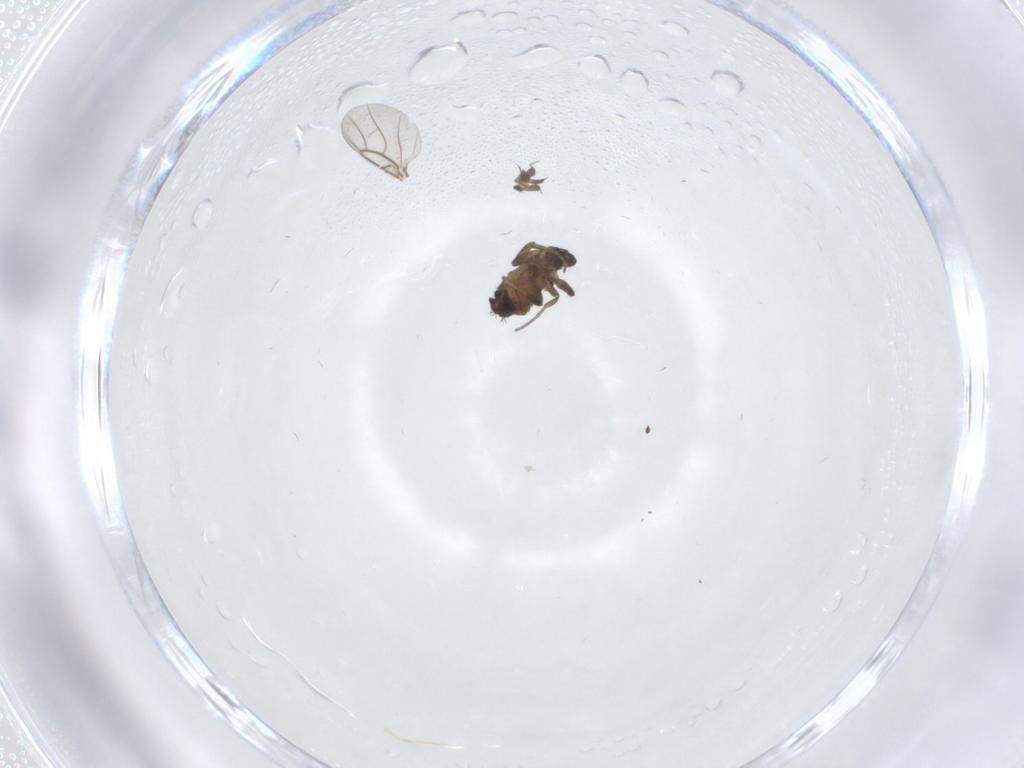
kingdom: Animalia
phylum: Arthropoda
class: Insecta
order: Diptera
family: Phoridae
